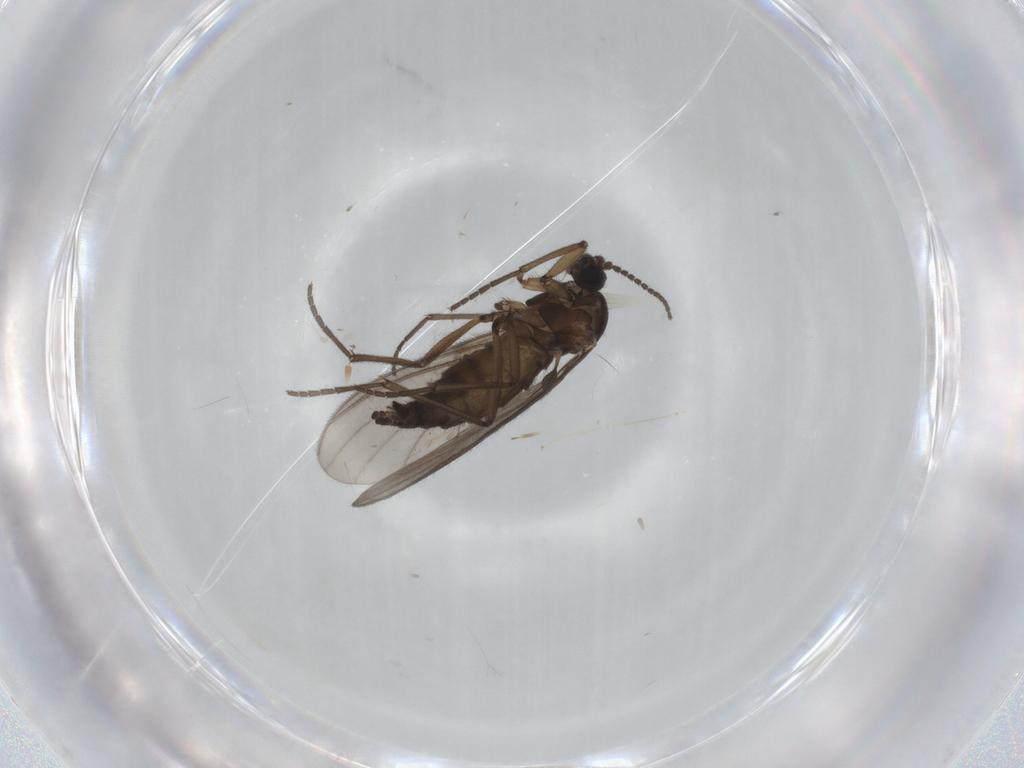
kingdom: Animalia
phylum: Arthropoda
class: Insecta
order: Diptera
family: Sciaridae
